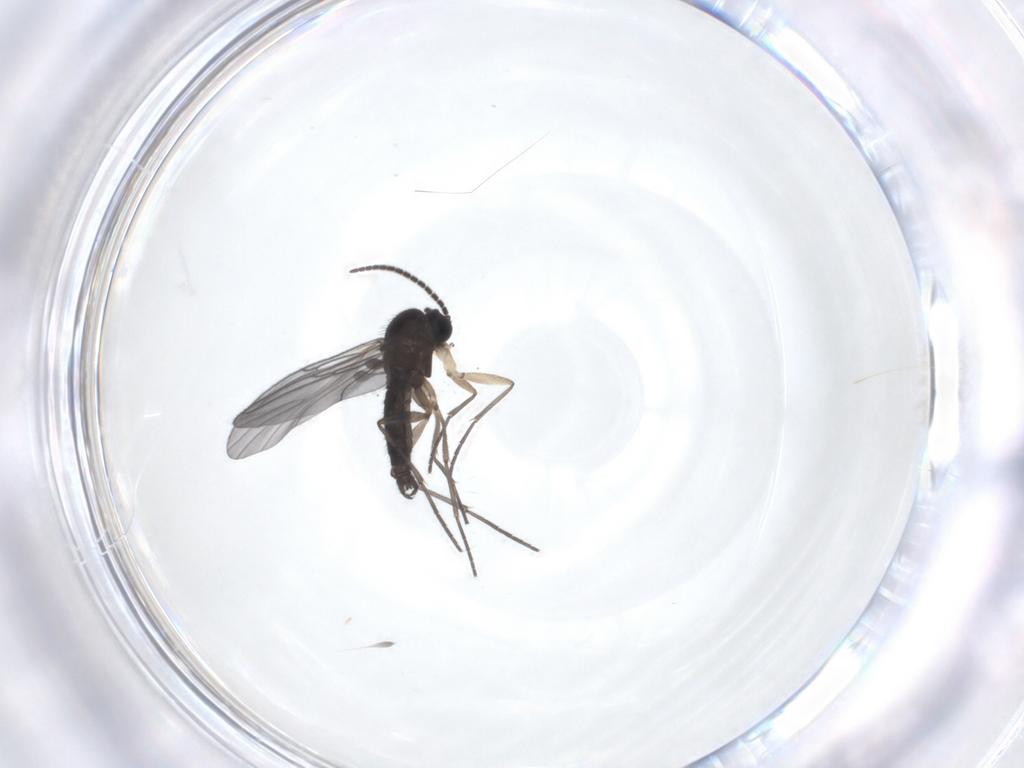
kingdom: Animalia
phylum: Arthropoda
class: Insecta
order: Diptera
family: Sciaridae
